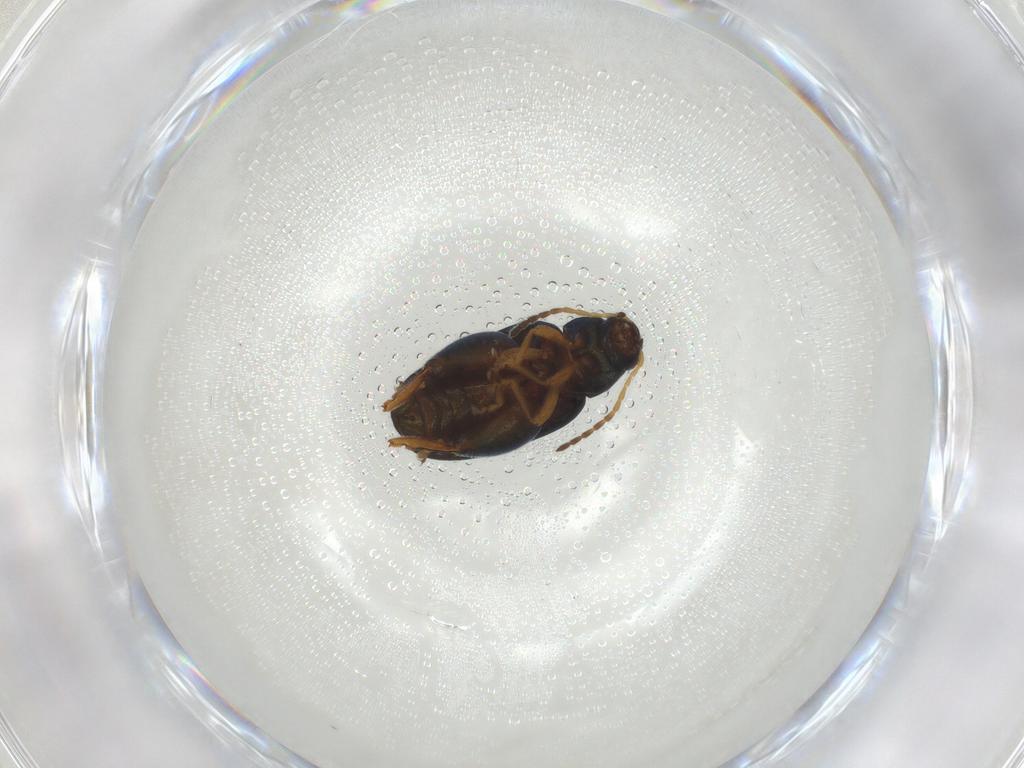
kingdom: Animalia
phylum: Arthropoda
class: Insecta
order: Coleoptera
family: Chrysomelidae
